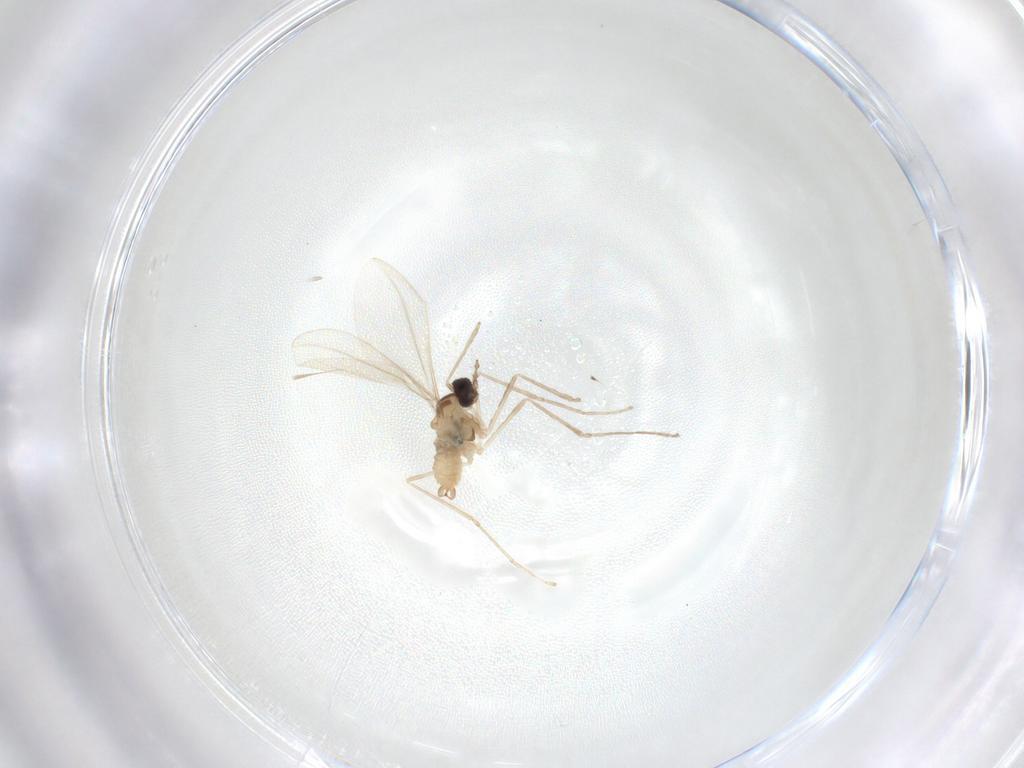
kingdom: Animalia
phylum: Arthropoda
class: Insecta
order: Diptera
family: Cecidomyiidae
